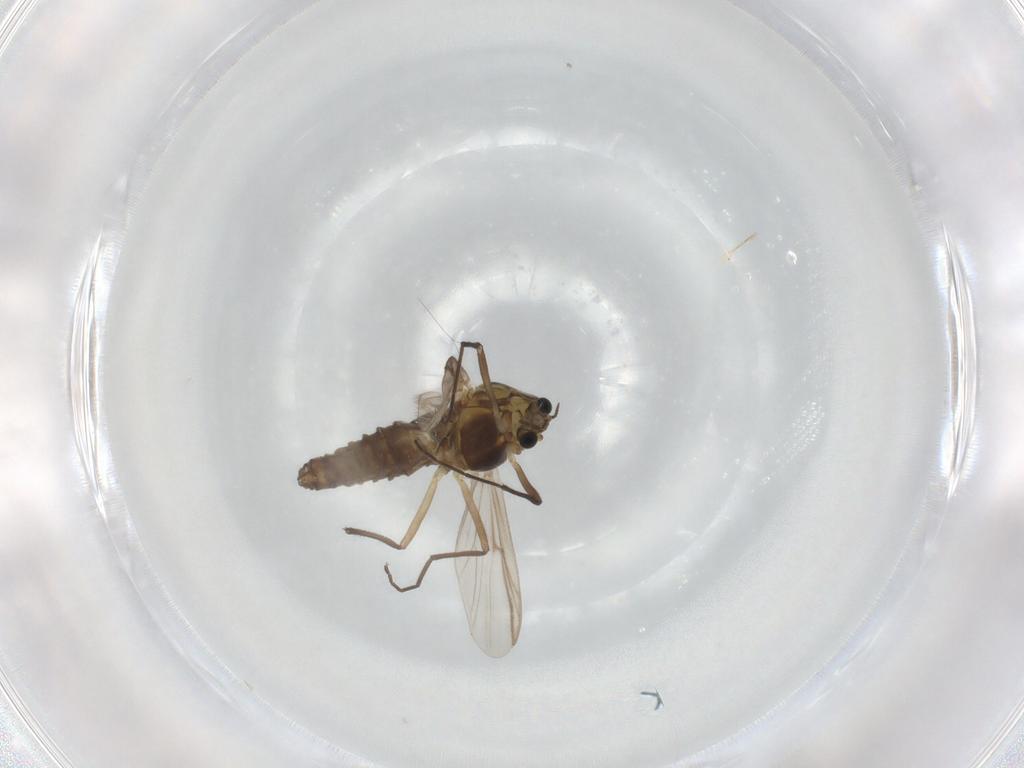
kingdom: Animalia
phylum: Arthropoda
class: Insecta
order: Diptera
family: Chironomidae
